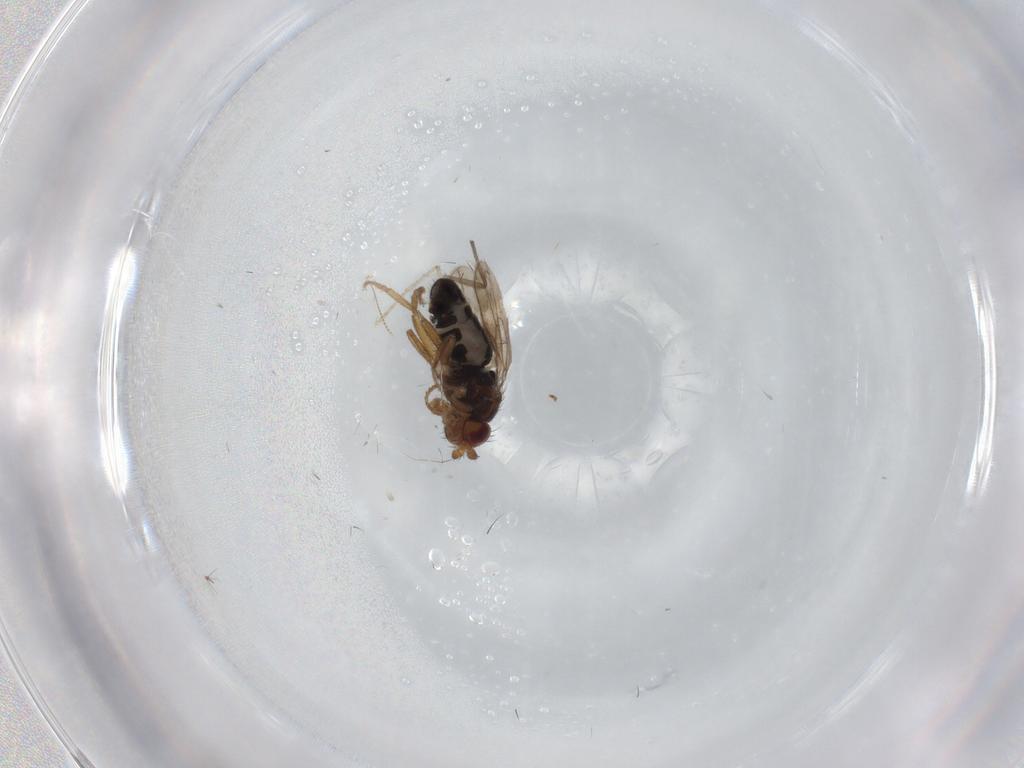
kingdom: Animalia
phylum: Arthropoda
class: Insecta
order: Diptera
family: Sphaeroceridae
